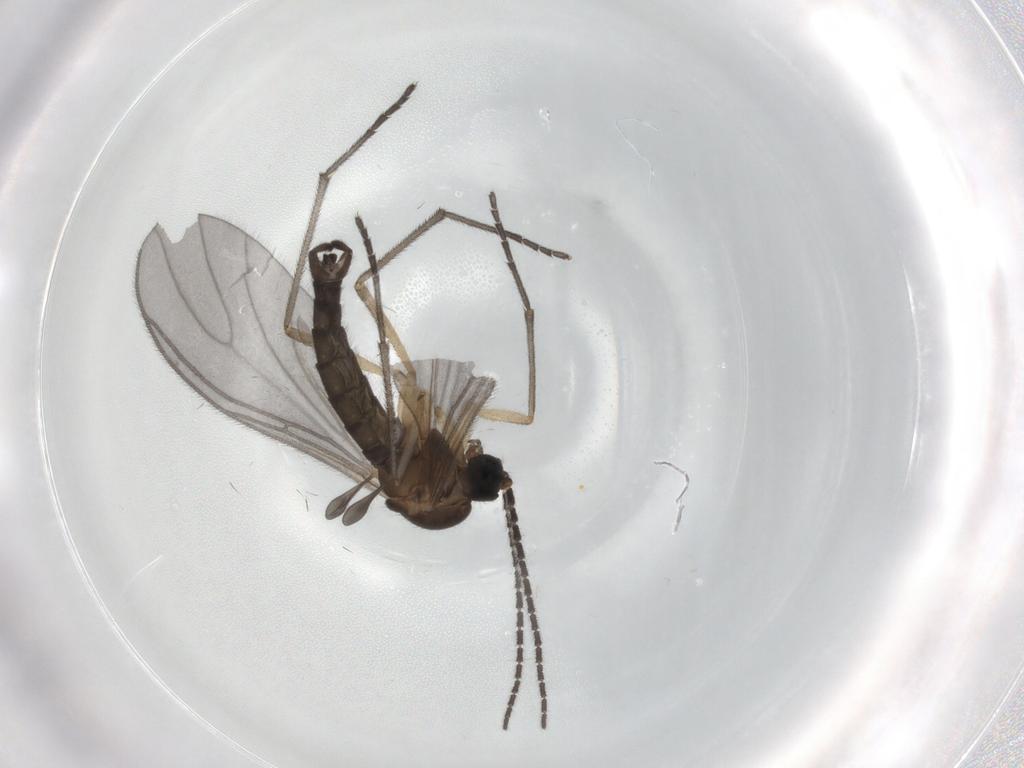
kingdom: Animalia
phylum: Arthropoda
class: Insecta
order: Diptera
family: Sciaridae
